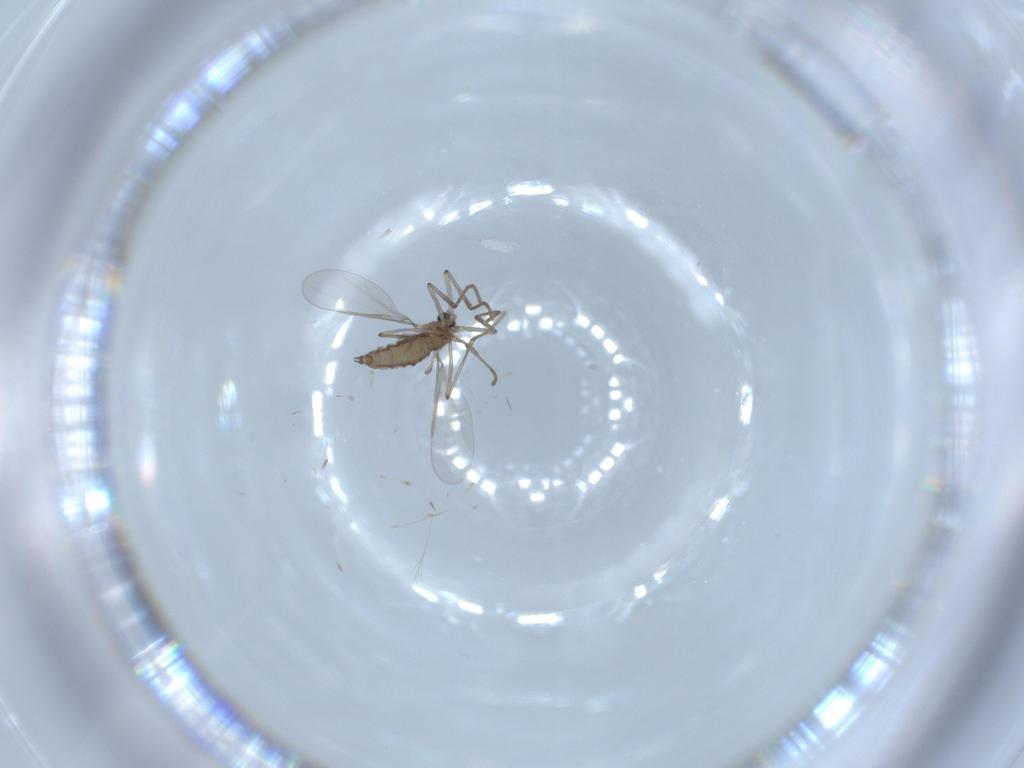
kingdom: Animalia
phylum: Arthropoda
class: Insecta
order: Diptera
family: Cecidomyiidae
